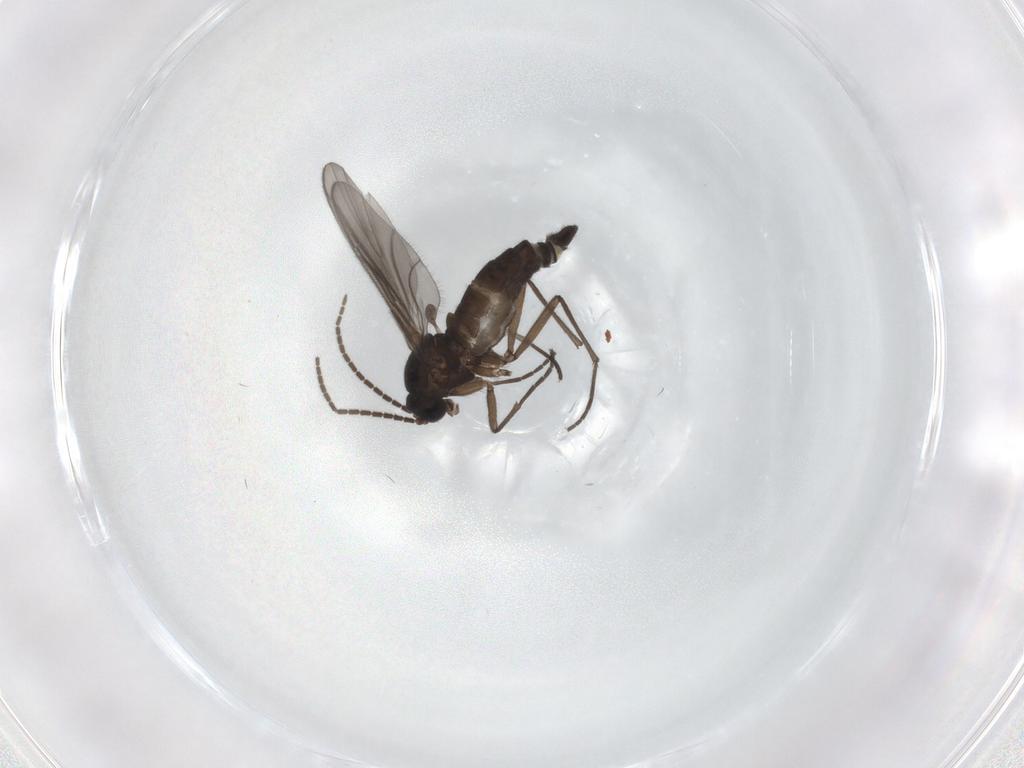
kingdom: Animalia
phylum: Arthropoda
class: Insecta
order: Diptera
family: Sciaridae
